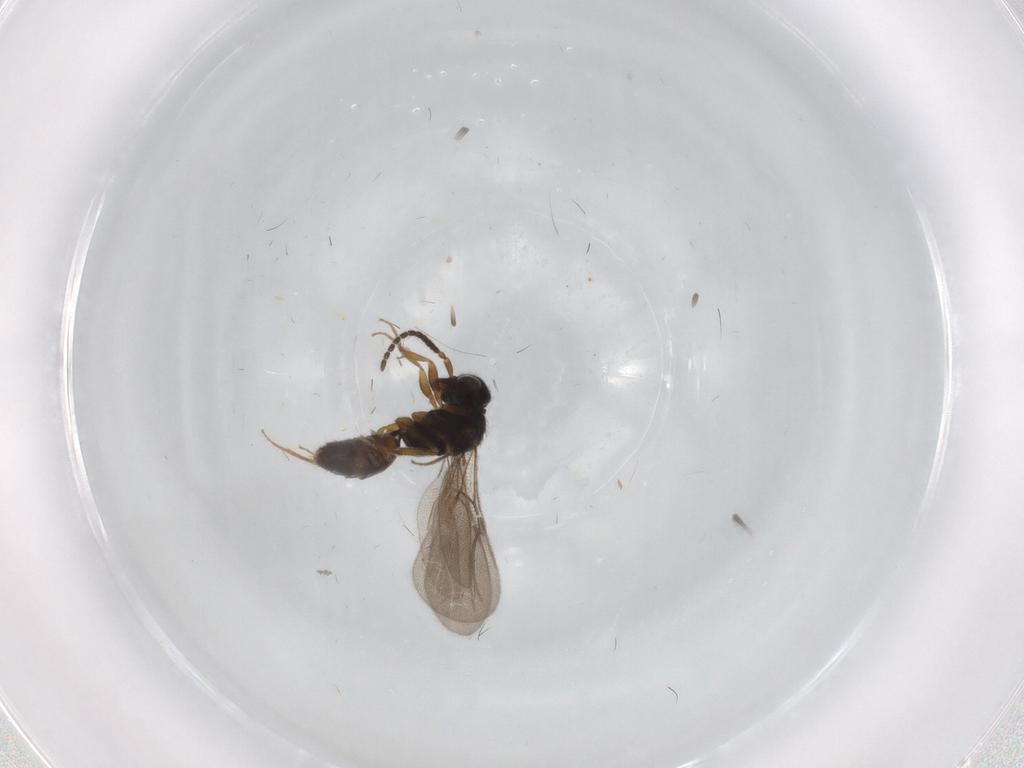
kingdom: Animalia
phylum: Arthropoda
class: Insecta
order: Hymenoptera
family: Bethylidae
